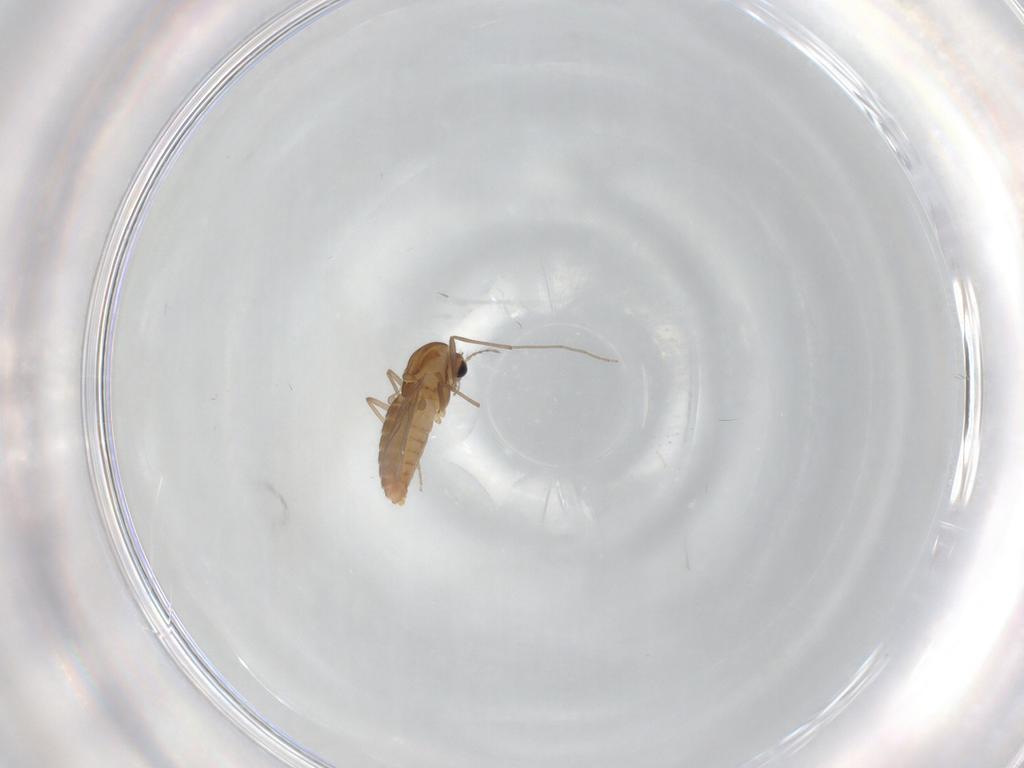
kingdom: Animalia
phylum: Arthropoda
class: Insecta
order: Diptera
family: Chironomidae
